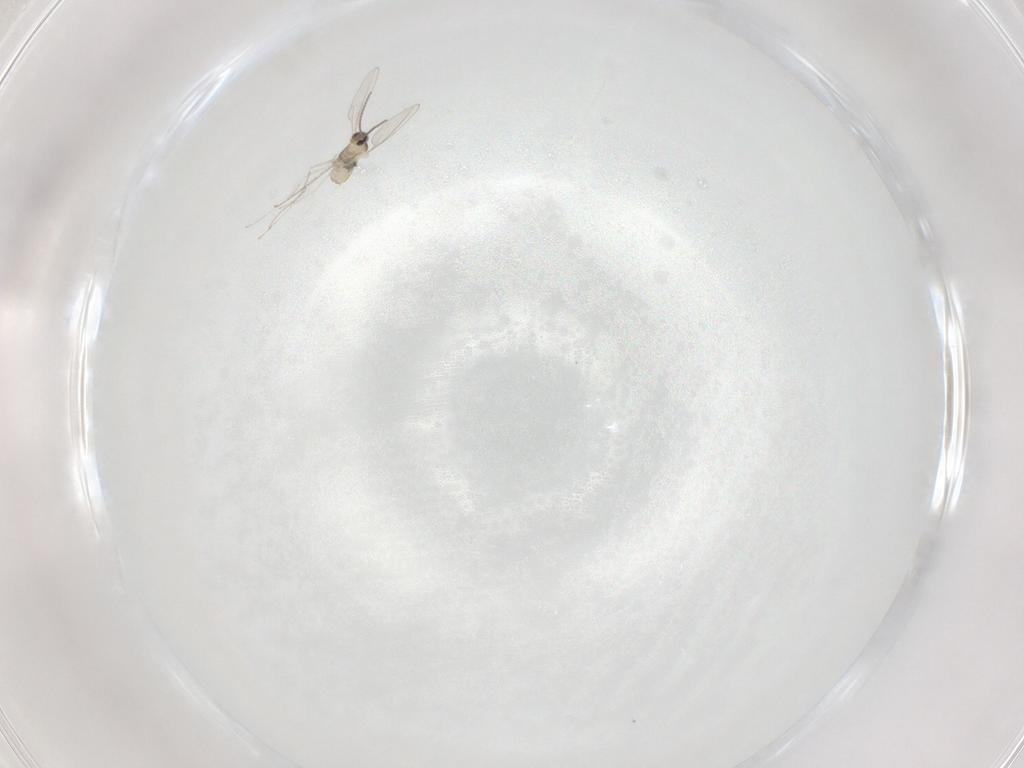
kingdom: Animalia
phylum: Arthropoda
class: Insecta
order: Diptera
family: Cecidomyiidae
